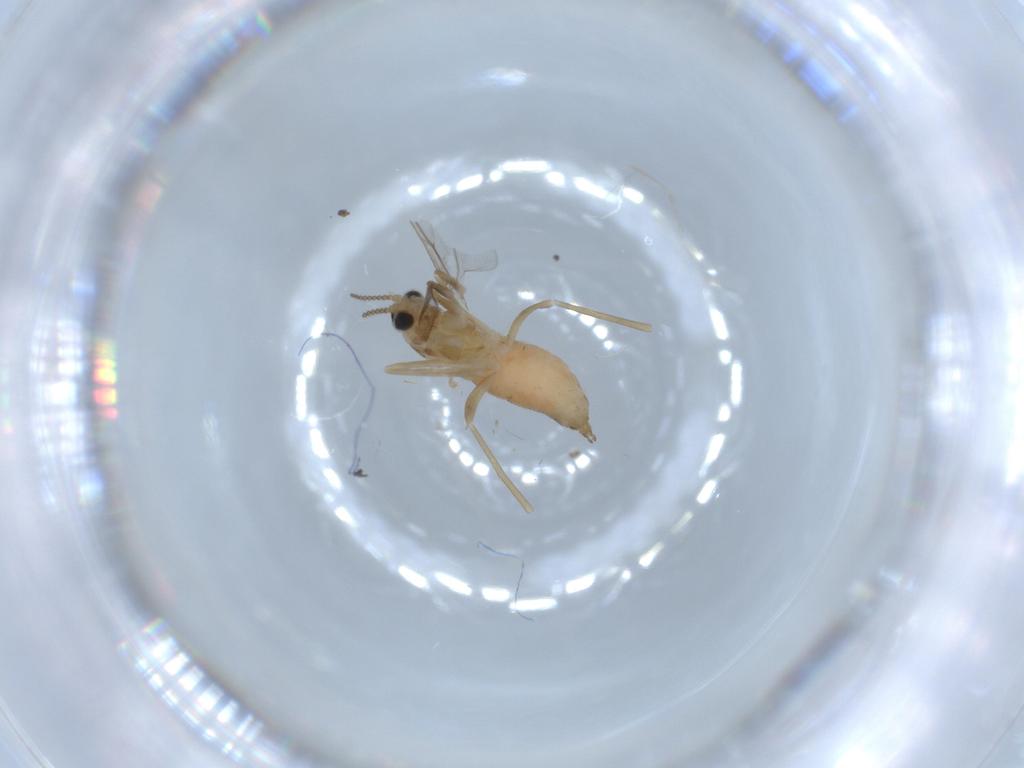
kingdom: Animalia
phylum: Arthropoda
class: Insecta
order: Diptera
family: Cecidomyiidae
